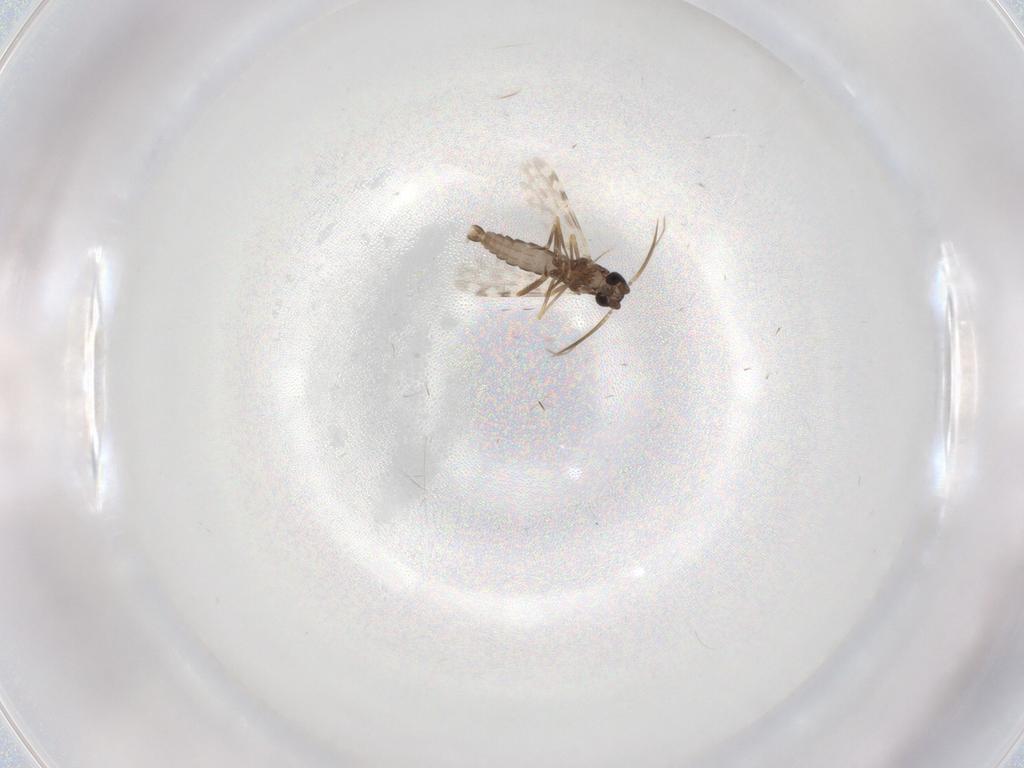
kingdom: Animalia
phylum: Arthropoda
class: Insecta
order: Diptera
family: Ceratopogonidae
